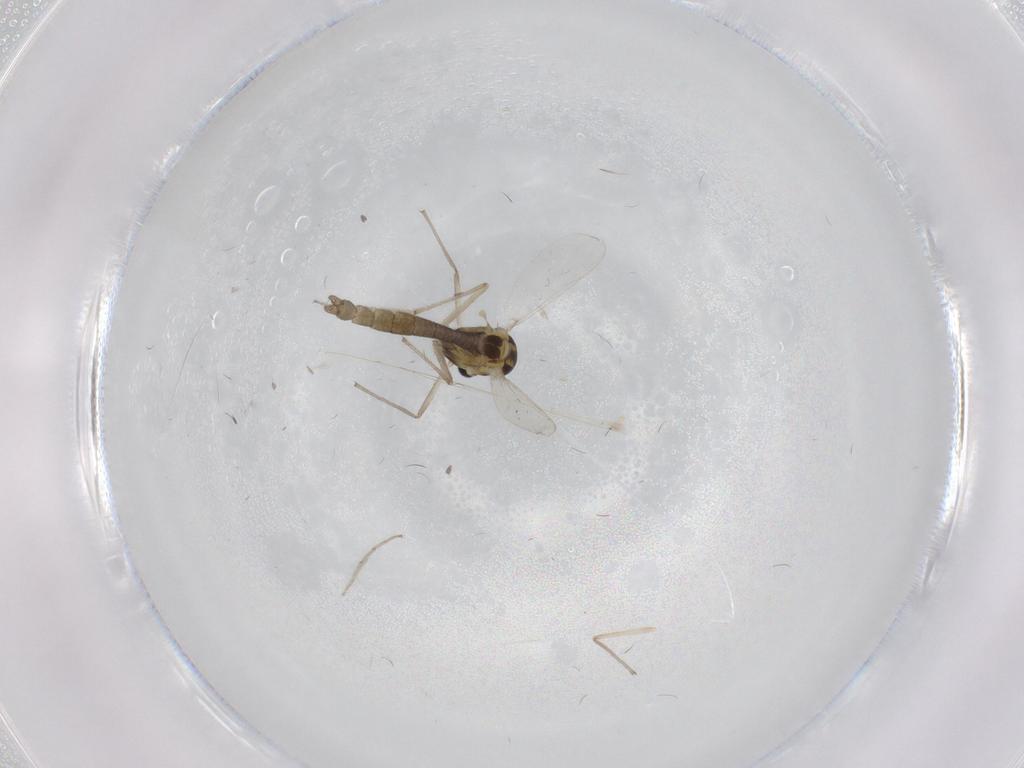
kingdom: Animalia
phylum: Arthropoda
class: Insecta
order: Diptera
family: Chironomidae
